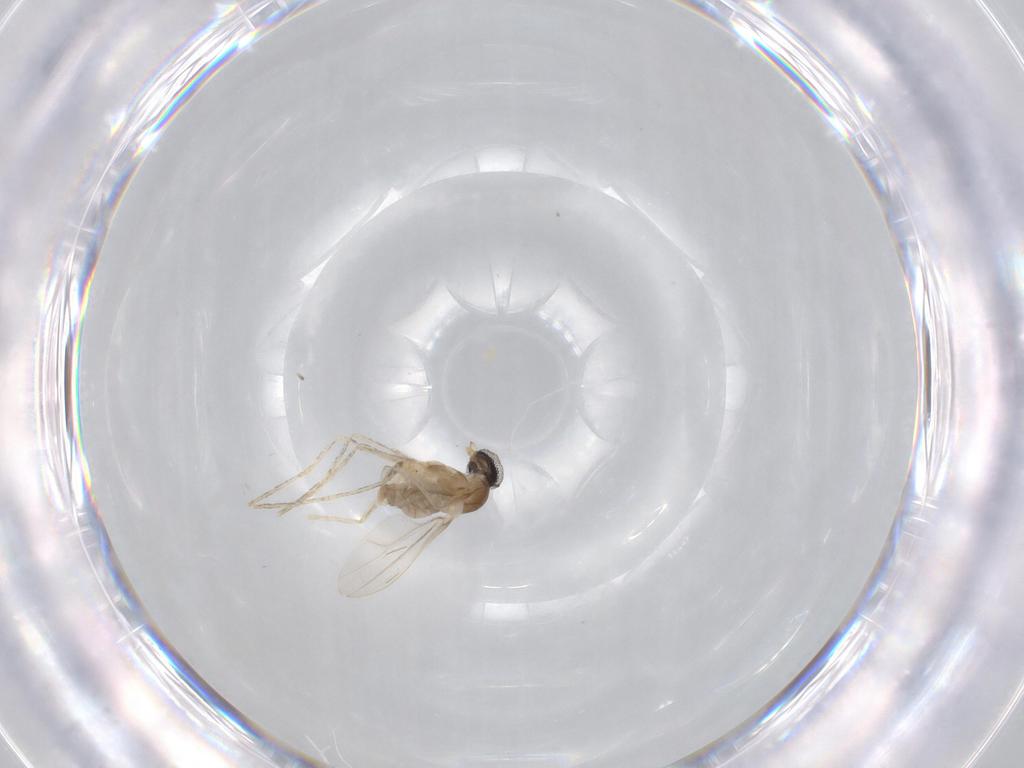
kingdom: Animalia
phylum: Arthropoda
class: Insecta
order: Diptera
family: Cecidomyiidae
